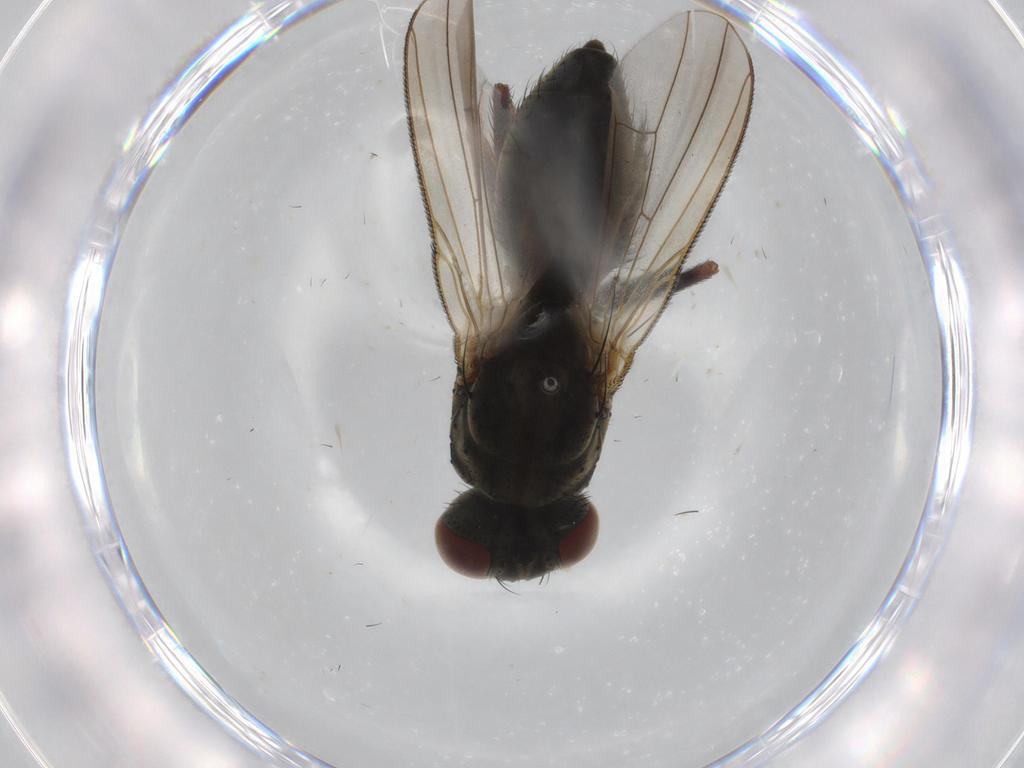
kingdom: Animalia
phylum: Arthropoda
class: Insecta
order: Diptera
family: Muscidae
